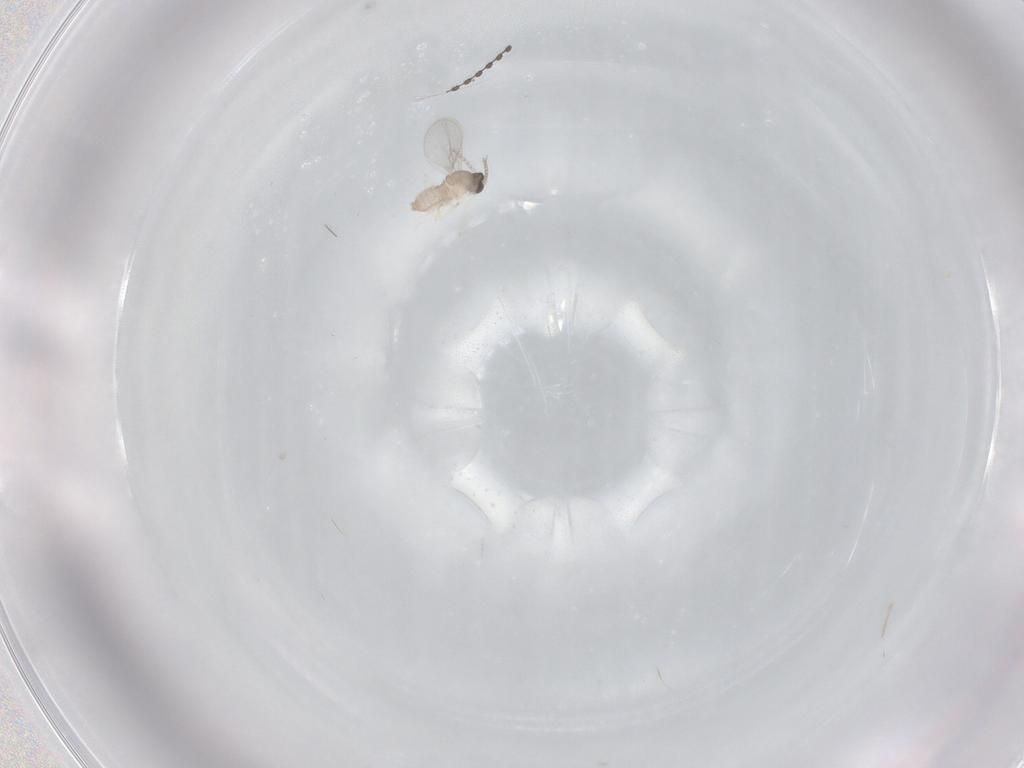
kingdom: Animalia
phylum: Arthropoda
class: Insecta
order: Diptera
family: Cecidomyiidae
